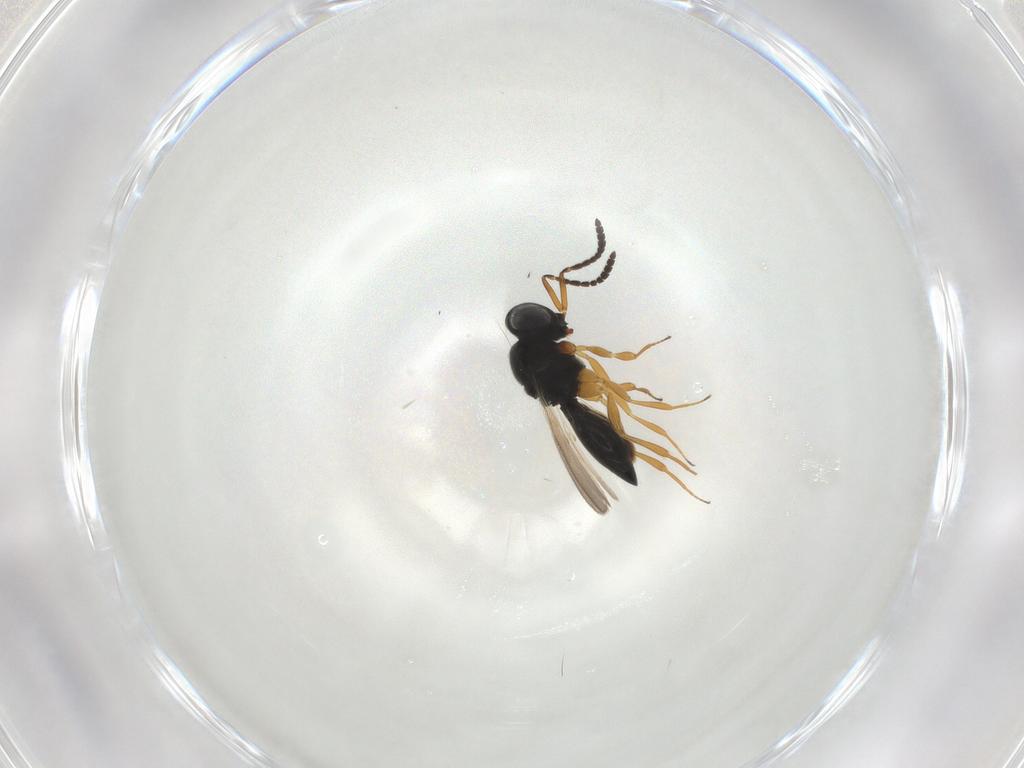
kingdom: Animalia
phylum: Arthropoda
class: Insecta
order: Hymenoptera
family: Scelionidae
